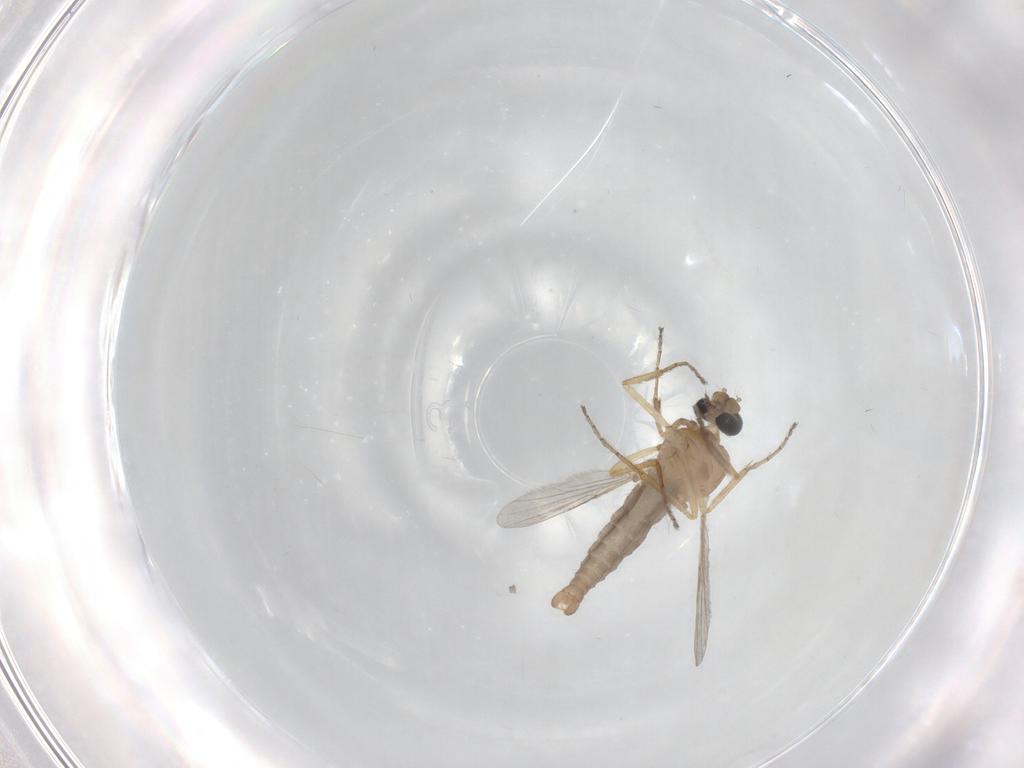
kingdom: Animalia
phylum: Arthropoda
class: Insecta
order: Diptera
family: Ceratopogonidae
